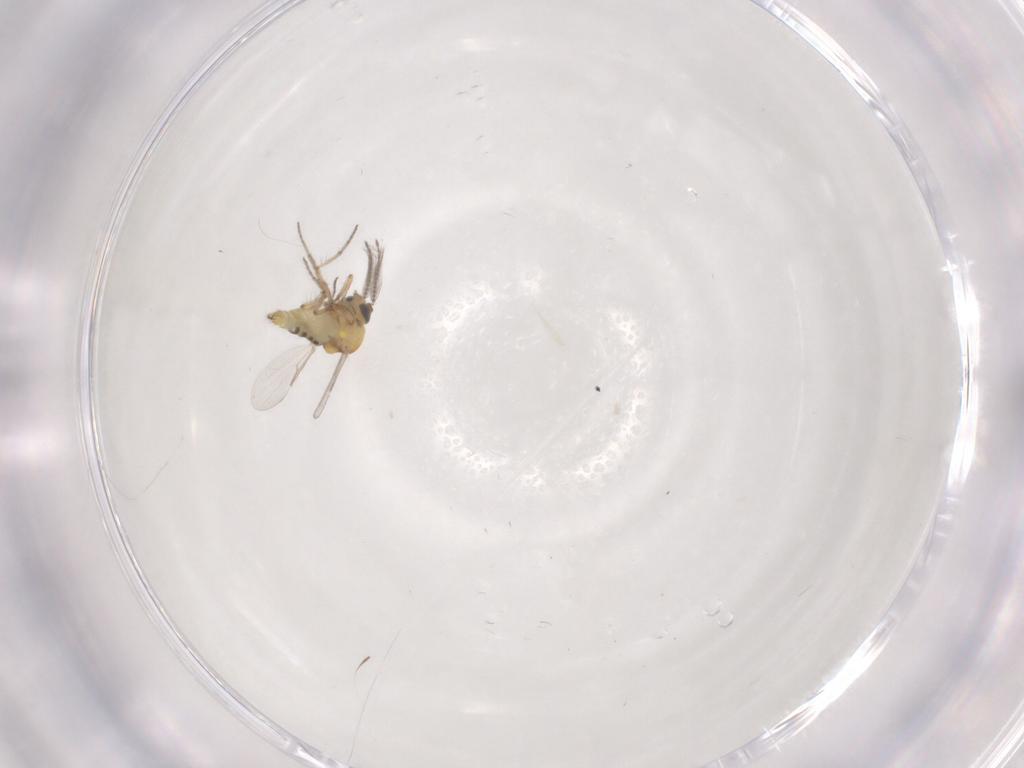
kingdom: Animalia
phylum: Arthropoda
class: Insecta
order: Diptera
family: Ceratopogonidae
